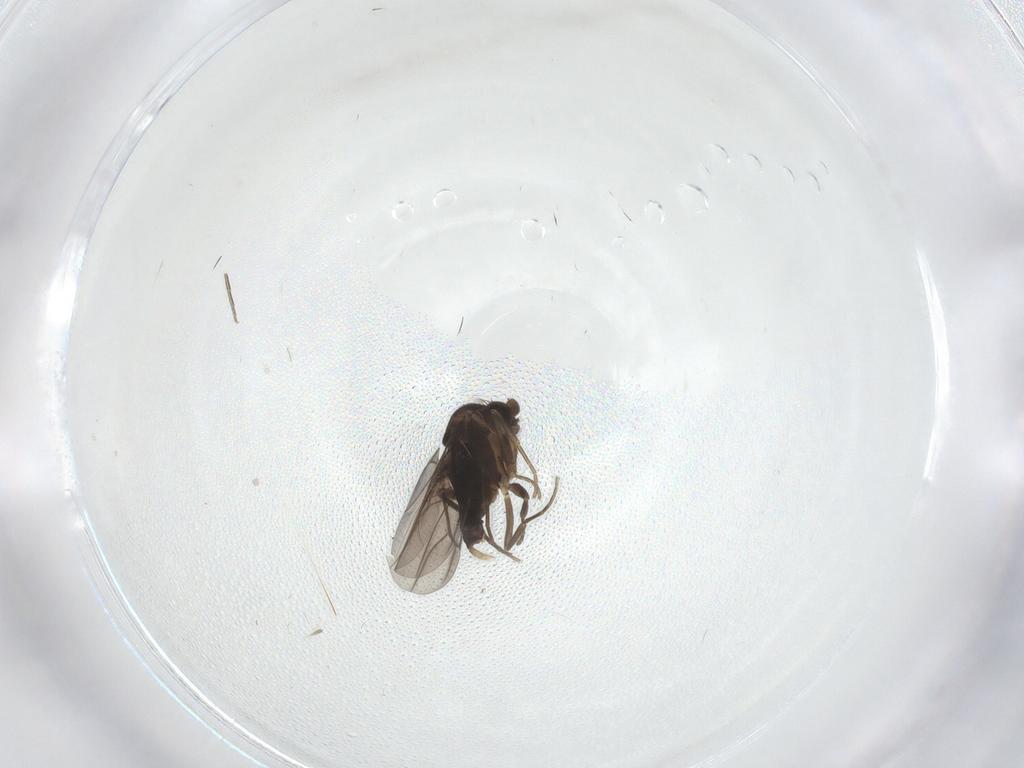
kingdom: Animalia
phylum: Arthropoda
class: Insecta
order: Diptera
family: Phoridae
